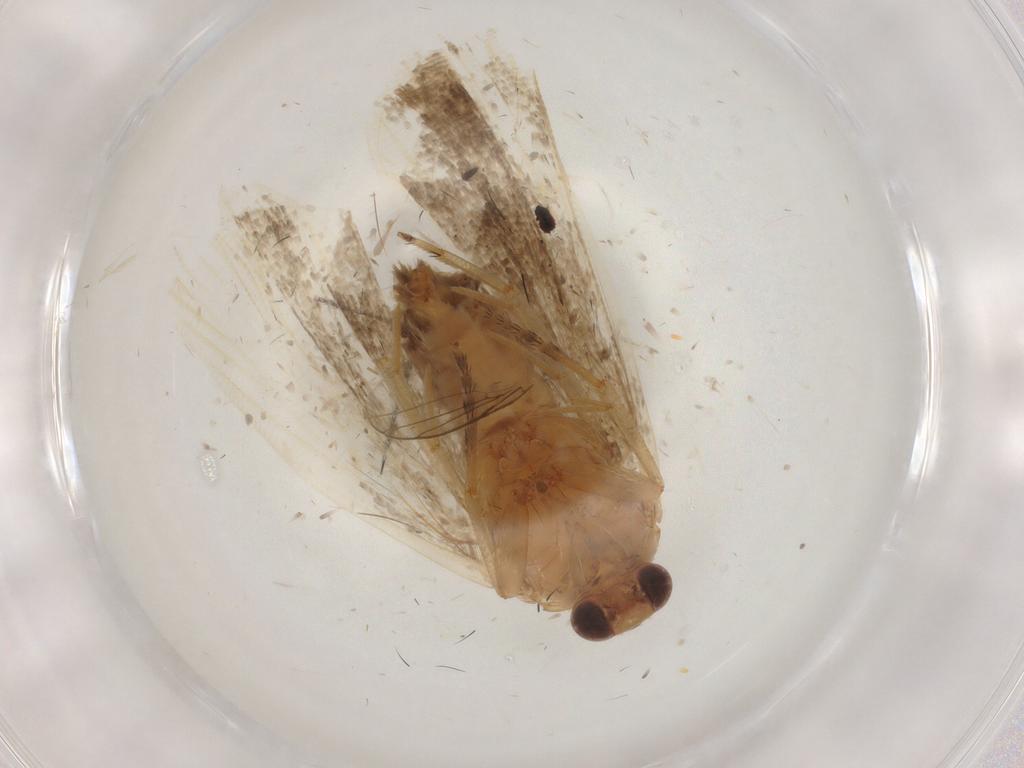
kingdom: Animalia
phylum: Arthropoda
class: Insecta
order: Lepidoptera
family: Tortricidae
